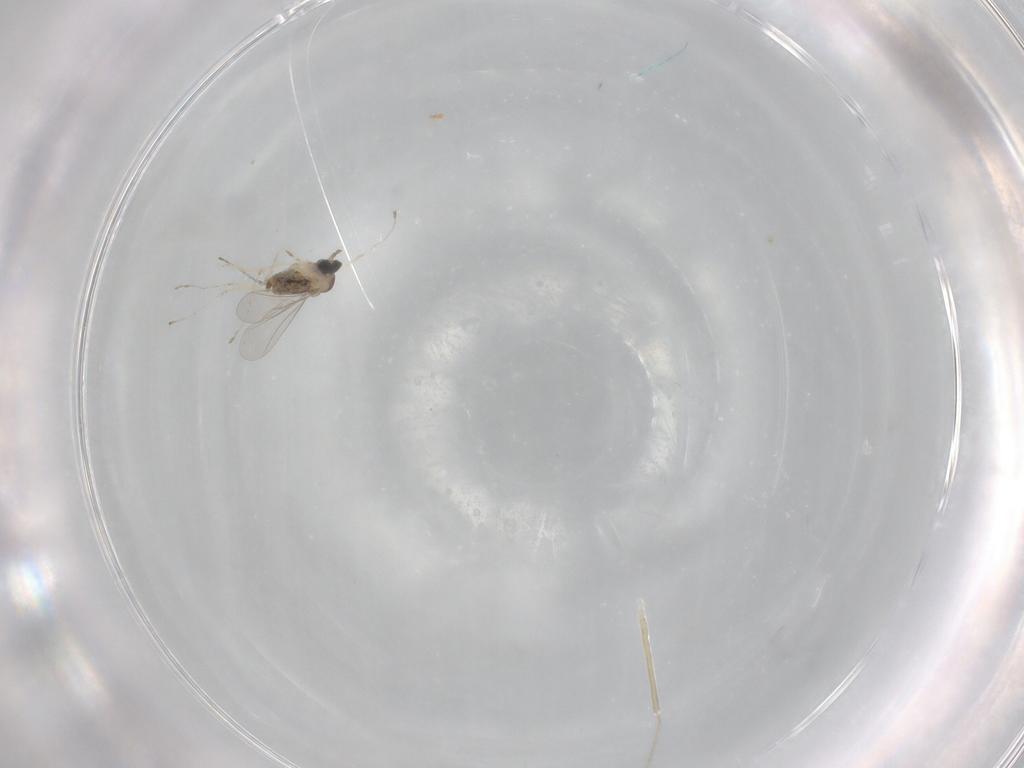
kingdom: Animalia
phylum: Arthropoda
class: Insecta
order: Diptera
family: Cecidomyiidae
